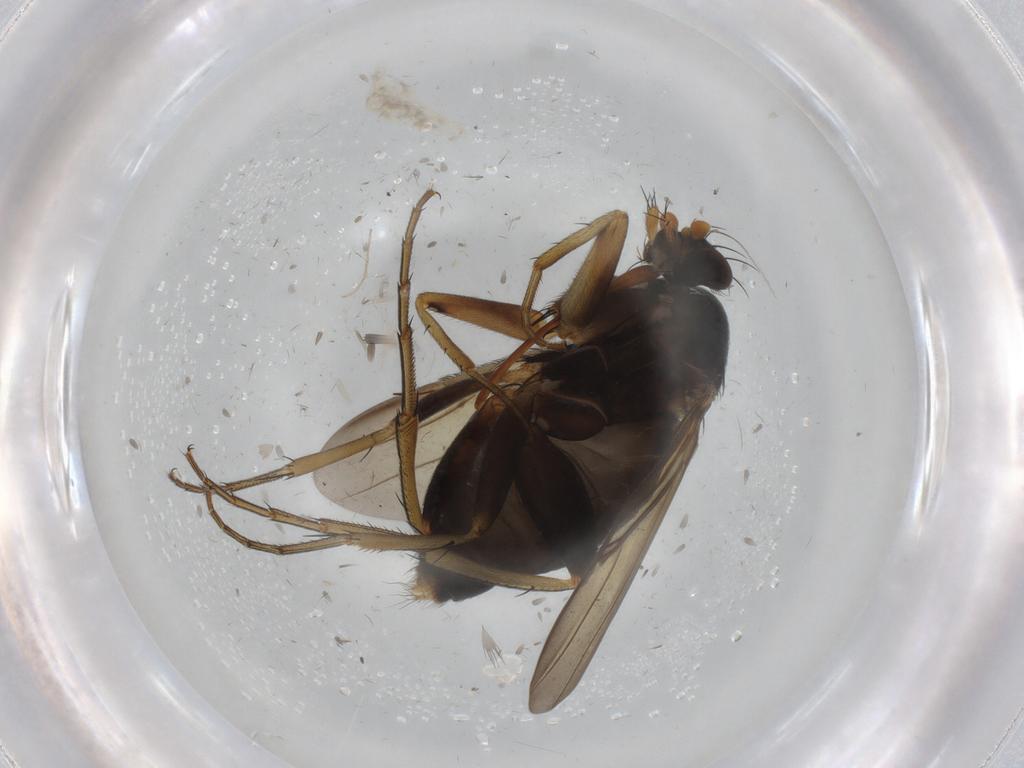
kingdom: Animalia
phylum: Arthropoda
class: Insecta
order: Diptera
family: Phoridae
